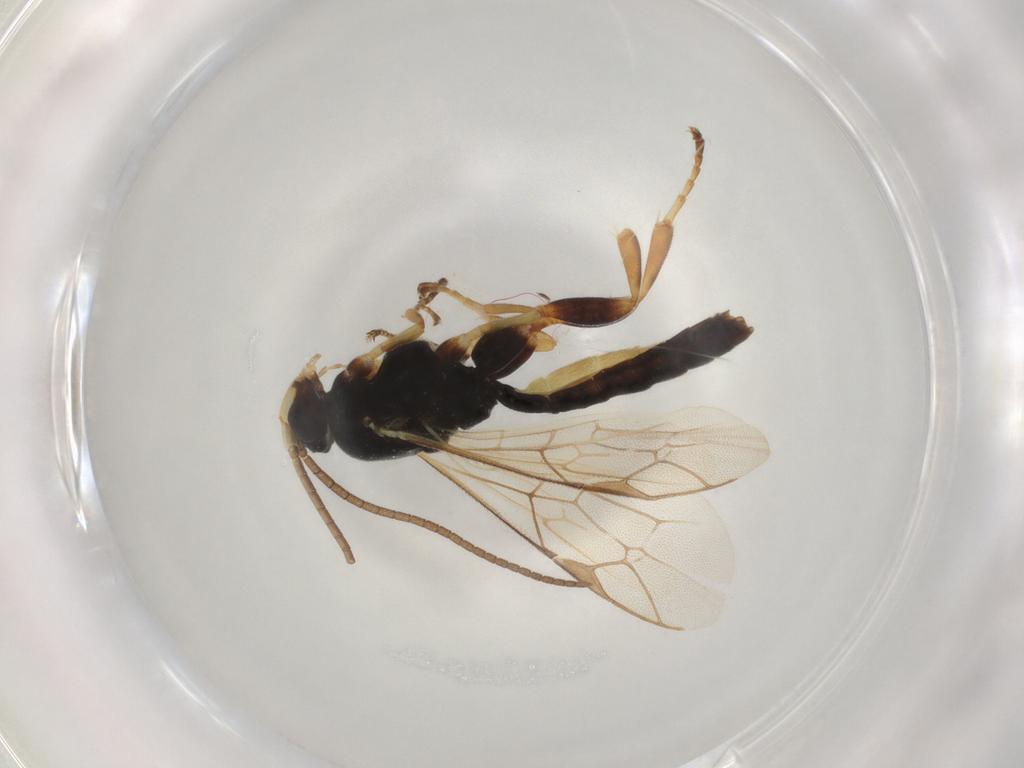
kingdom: Animalia
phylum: Arthropoda
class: Insecta
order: Hymenoptera
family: Ichneumonidae
